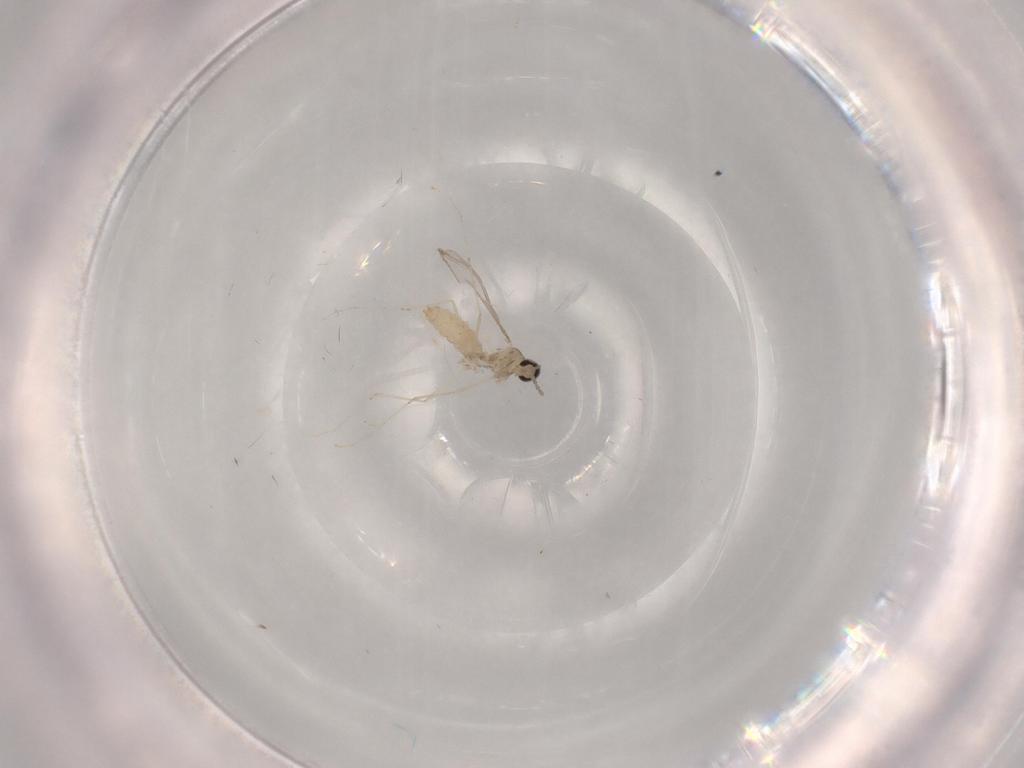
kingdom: Animalia
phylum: Arthropoda
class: Insecta
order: Diptera
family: Cecidomyiidae
